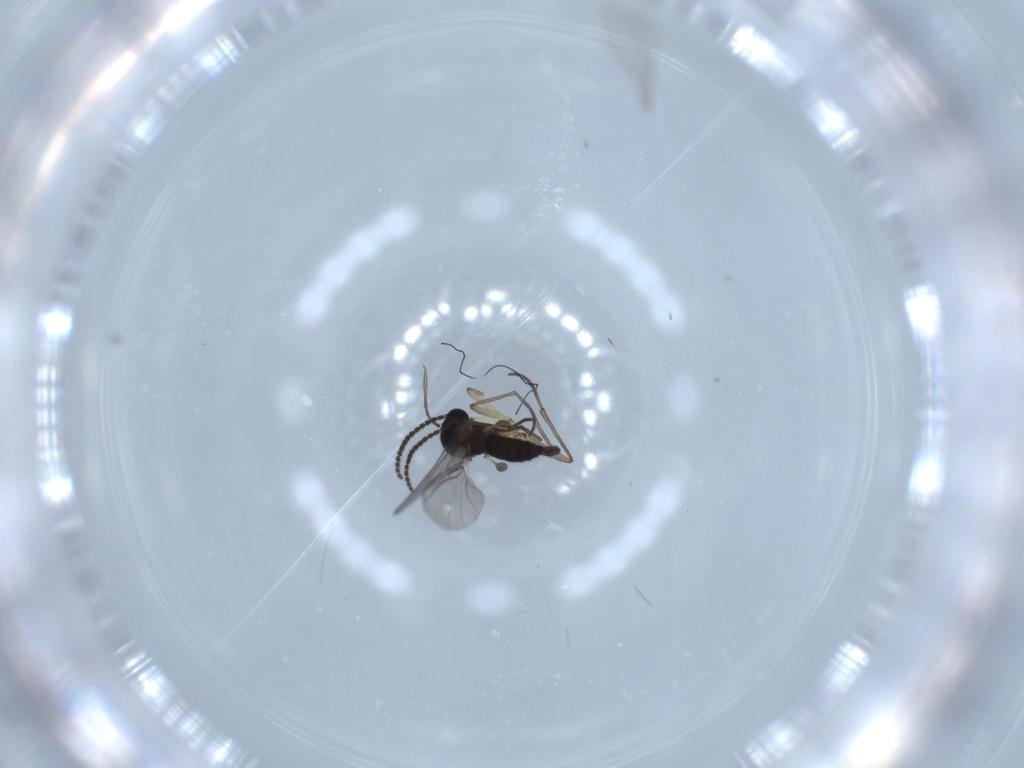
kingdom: Animalia
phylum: Arthropoda
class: Insecta
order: Diptera
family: Sciaridae
